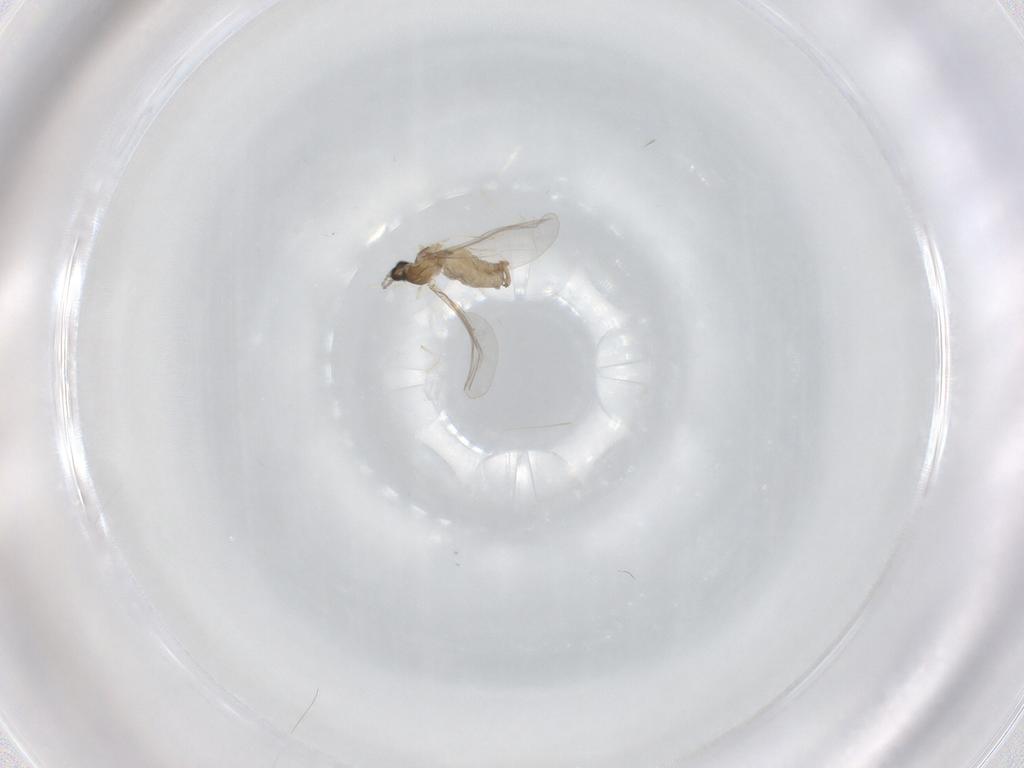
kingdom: Animalia
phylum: Arthropoda
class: Insecta
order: Diptera
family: Cecidomyiidae
